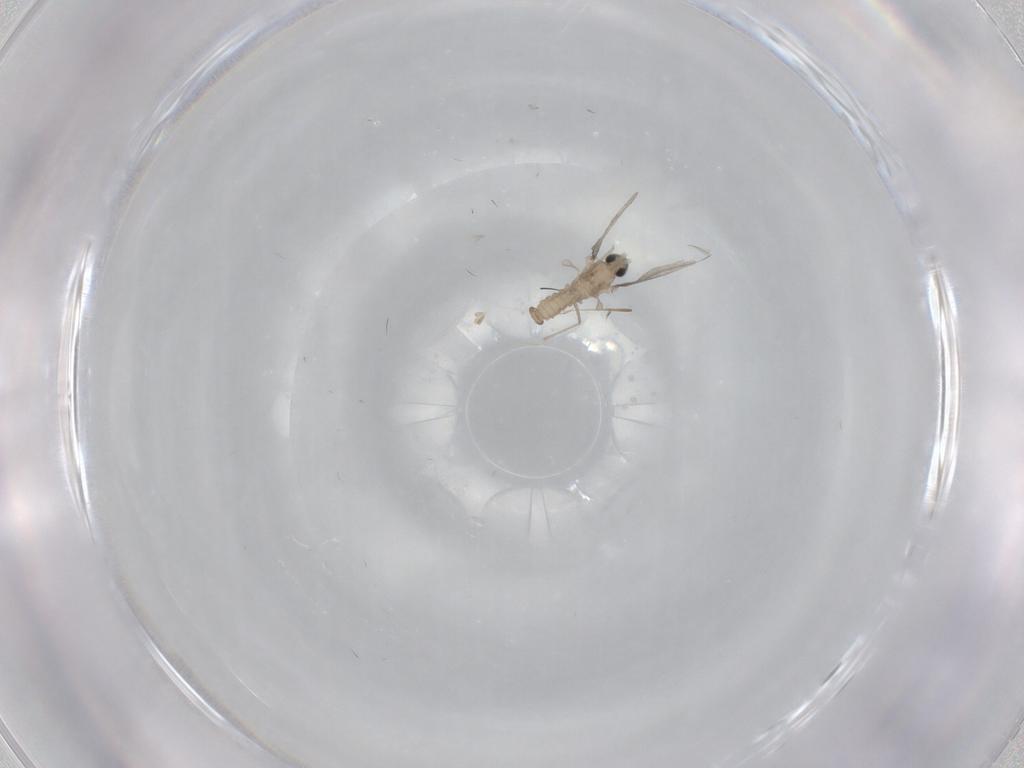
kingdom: Animalia
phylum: Arthropoda
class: Insecta
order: Diptera
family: Cecidomyiidae
